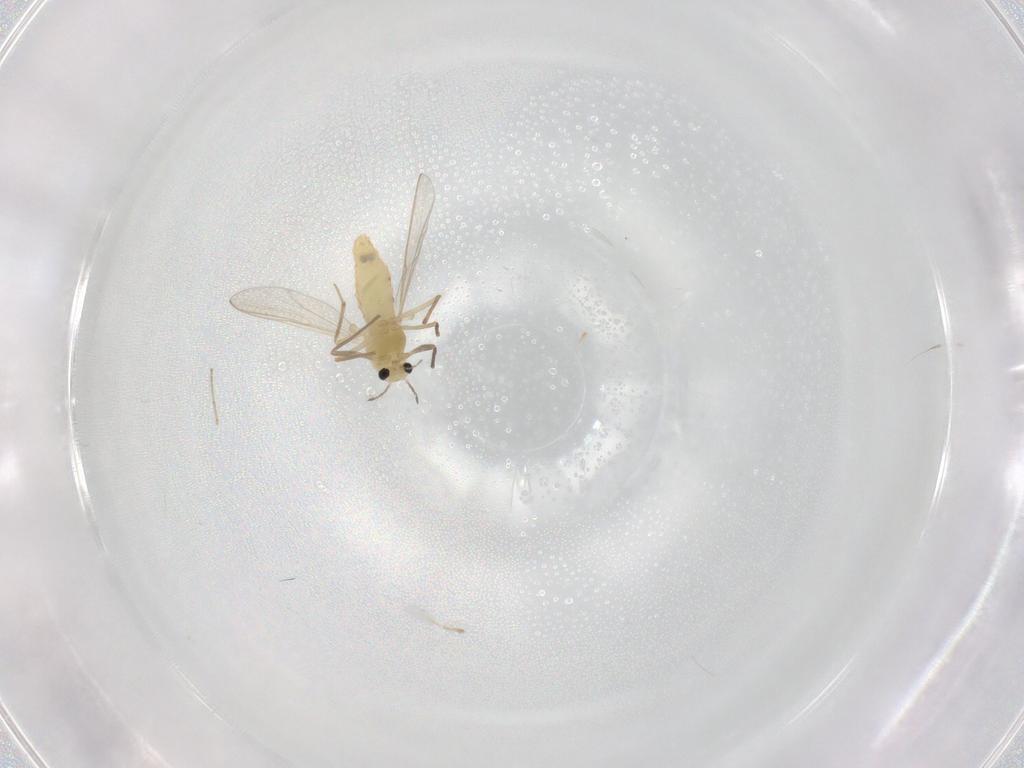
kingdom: Animalia
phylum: Arthropoda
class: Insecta
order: Diptera
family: Chironomidae
